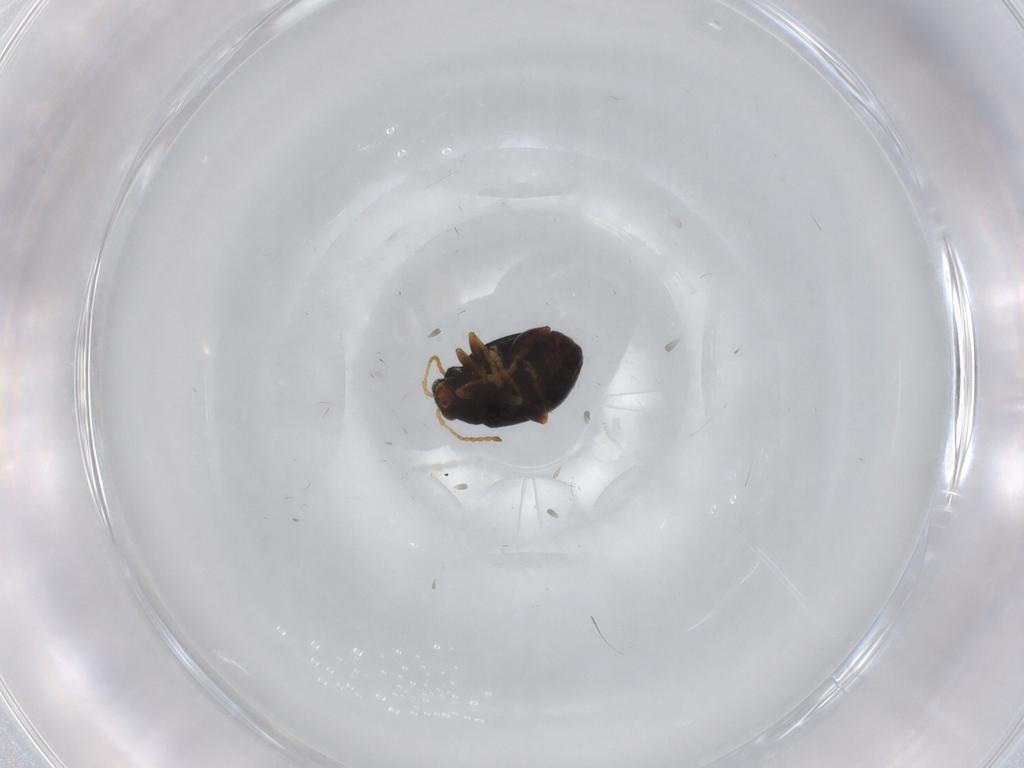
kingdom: Animalia
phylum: Arthropoda
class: Insecta
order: Coleoptera
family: Chrysomelidae
